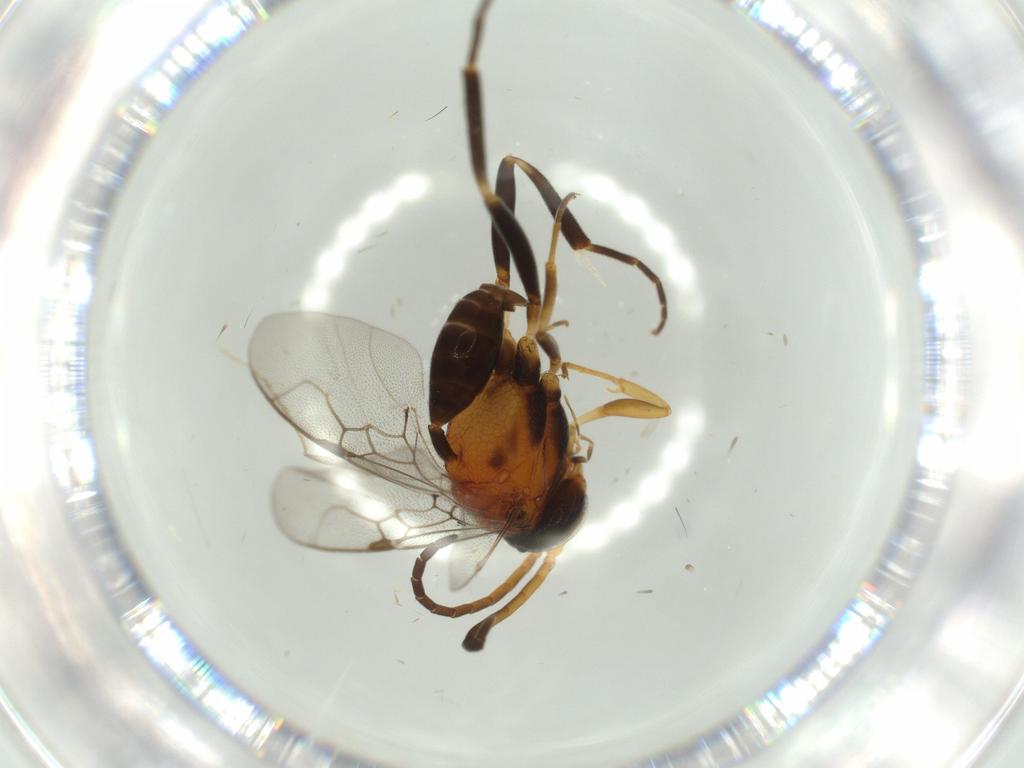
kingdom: Animalia
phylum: Arthropoda
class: Insecta
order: Hymenoptera
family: Evaniidae
